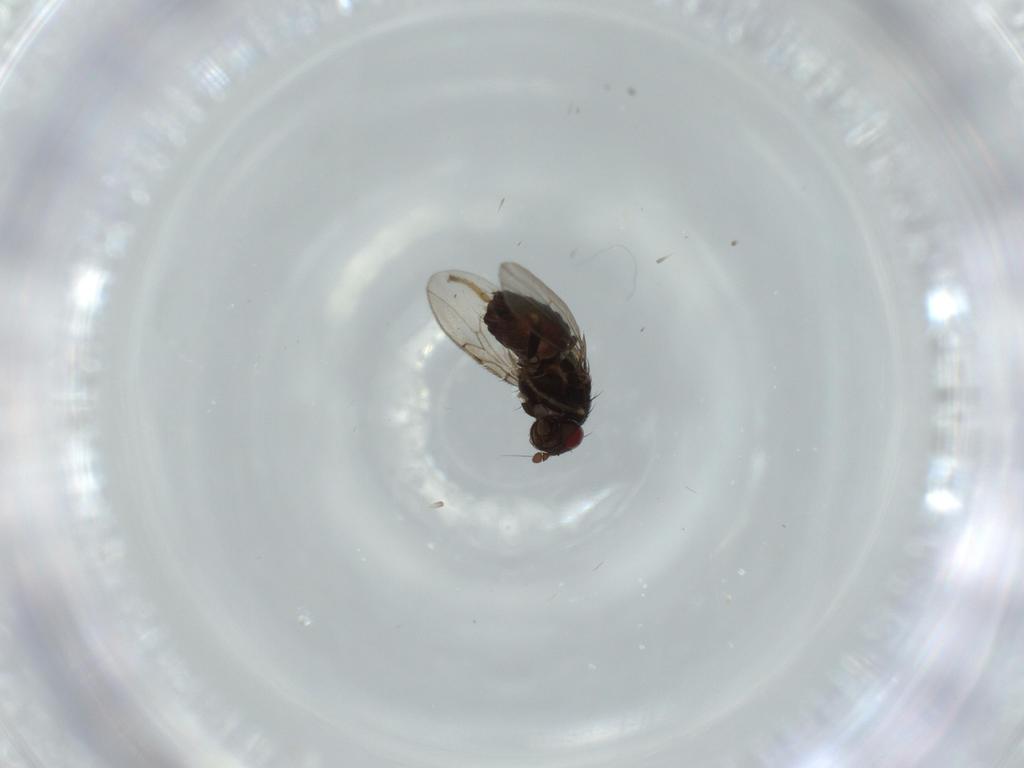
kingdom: Animalia
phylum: Arthropoda
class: Insecta
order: Diptera
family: Sphaeroceridae
